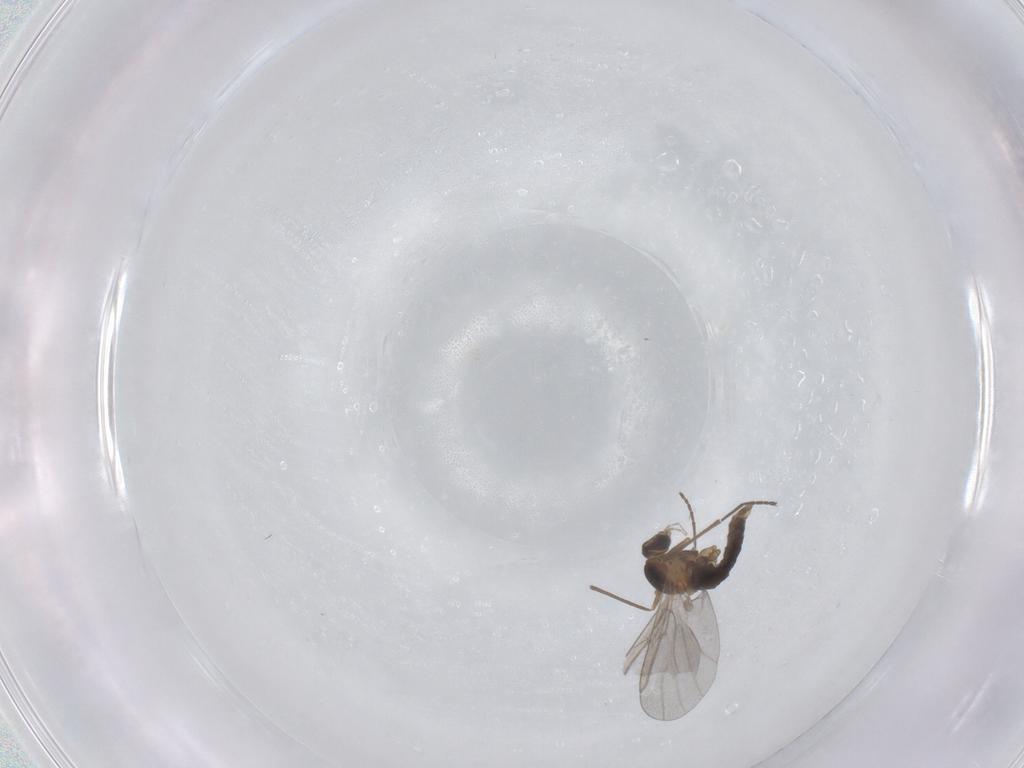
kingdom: Animalia
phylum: Arthropoda
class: Insecta
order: Diptera
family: Cecidomyiidae
